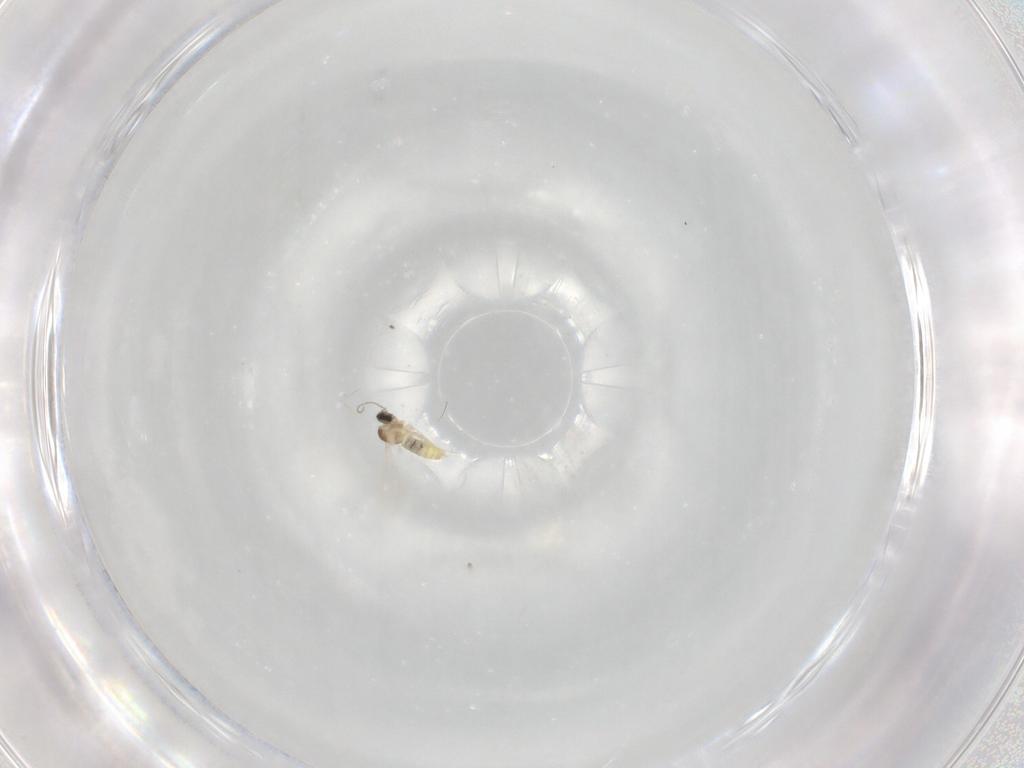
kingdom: Animalia
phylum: Arthropoda
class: Insecta
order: Diptera
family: Cecidomyiidae
